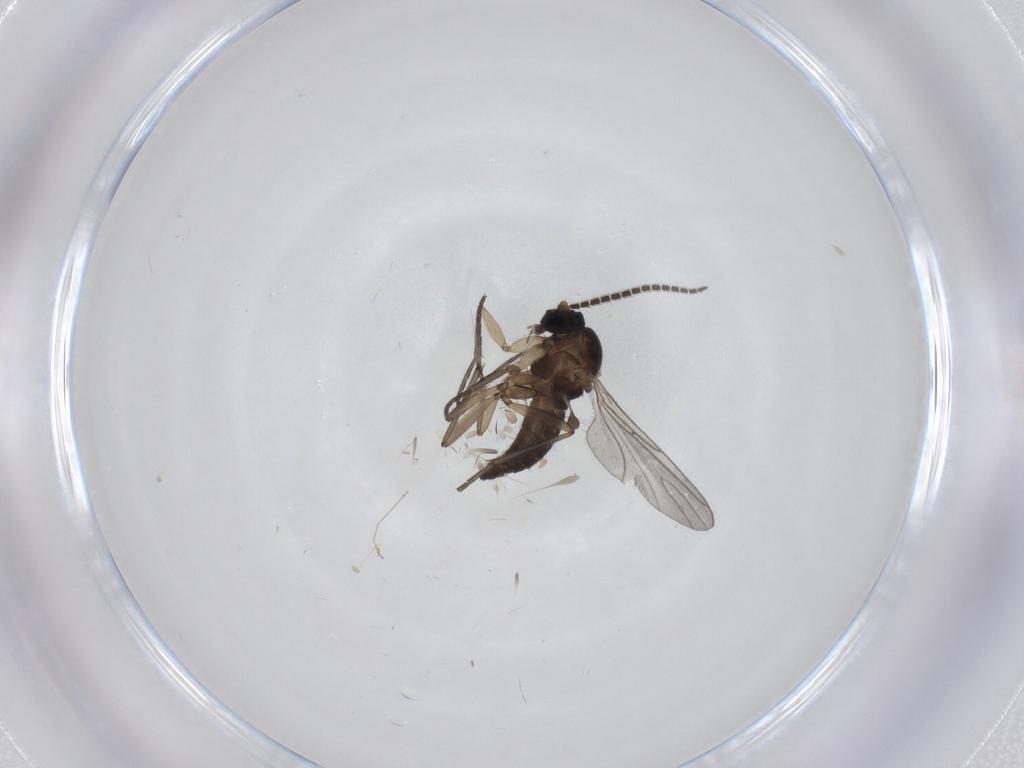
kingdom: Animalia
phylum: Arthropoda
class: Insecta
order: Diptera
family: Sciaridae
